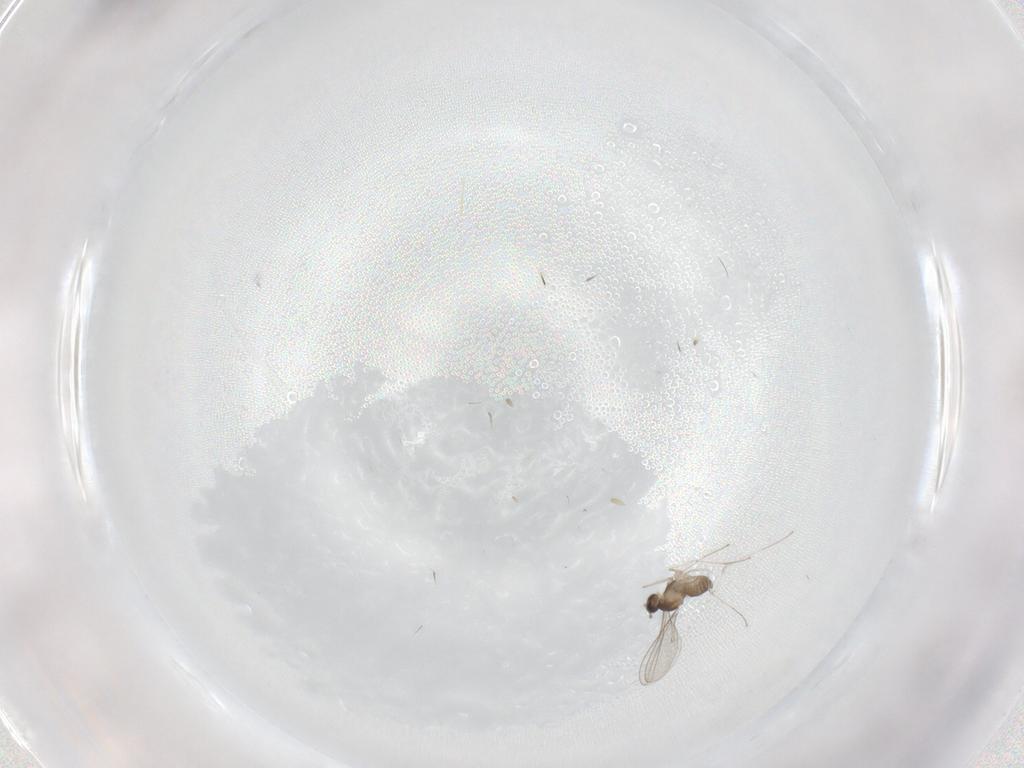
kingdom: Animalia
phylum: Arthropoda
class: Insecta
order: Diptera
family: Cecidomyiidae
